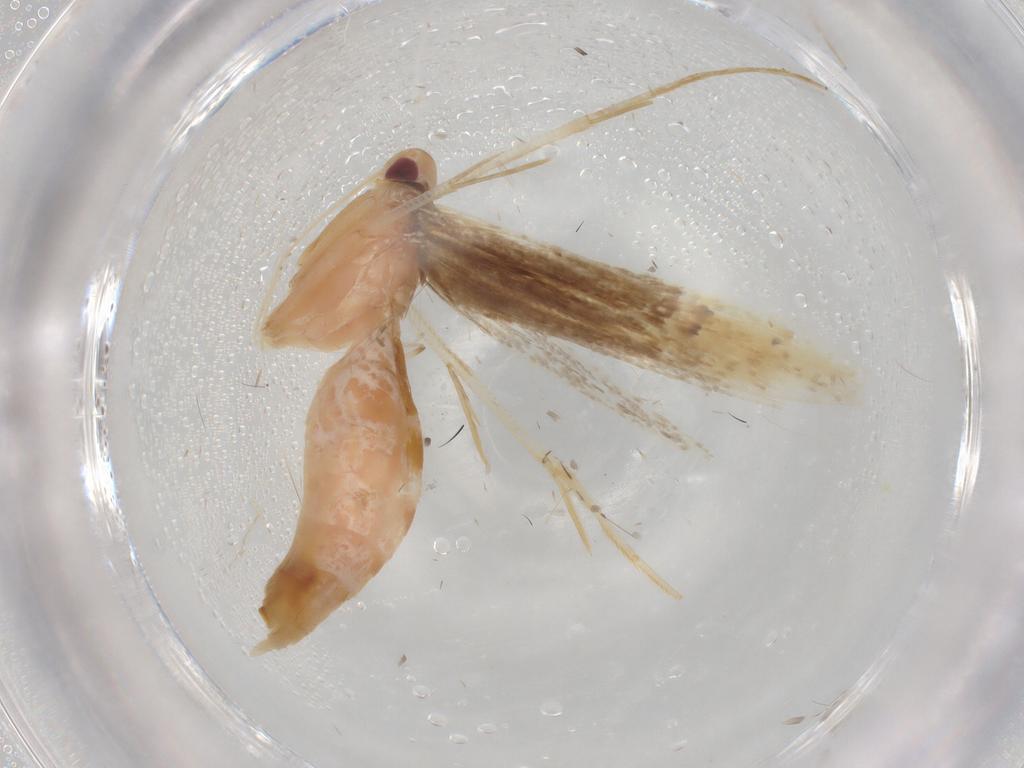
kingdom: Animalia
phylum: Arthropoda
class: Insecta
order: Lepidoptera
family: Cosmopterigidae
